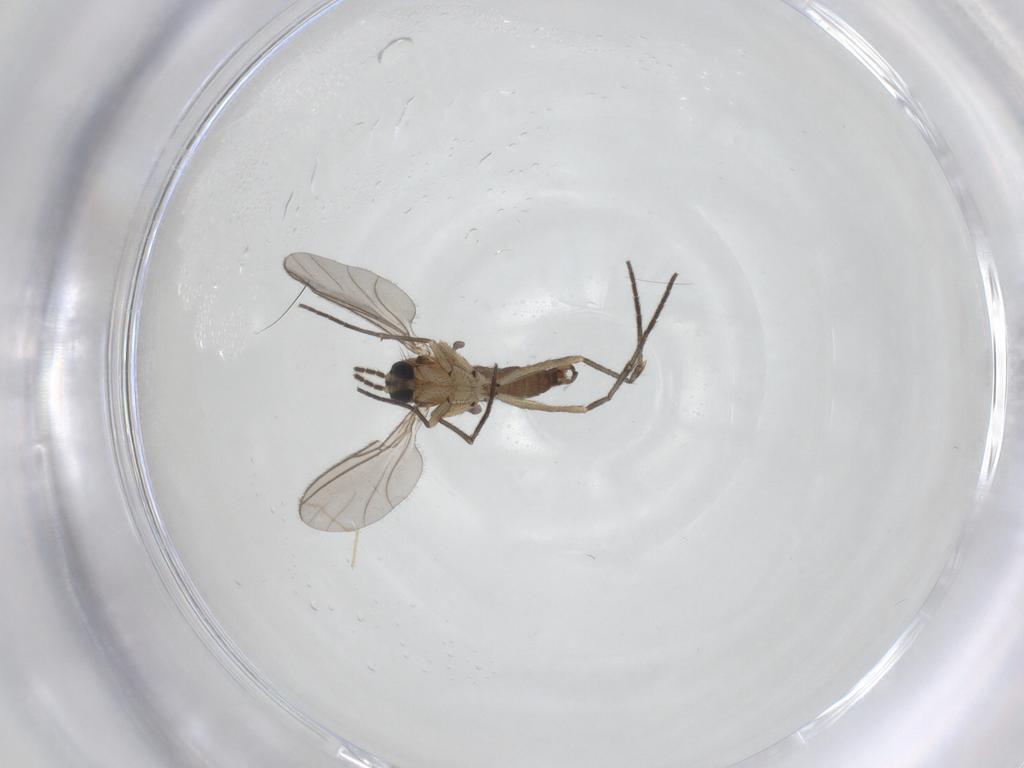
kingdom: Animalia
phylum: Arthropoda
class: Insecta
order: Diptera
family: Sciaridae
